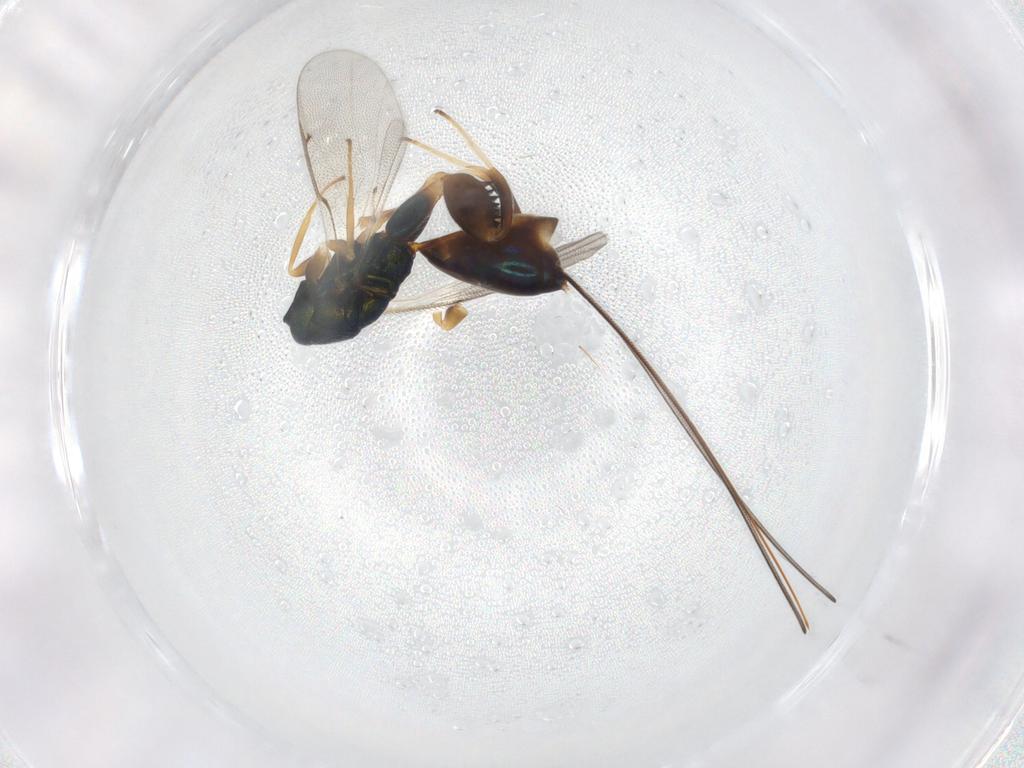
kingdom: Animalia
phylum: Arthropoda
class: Insecta
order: Hymenoptera
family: Torymidae
